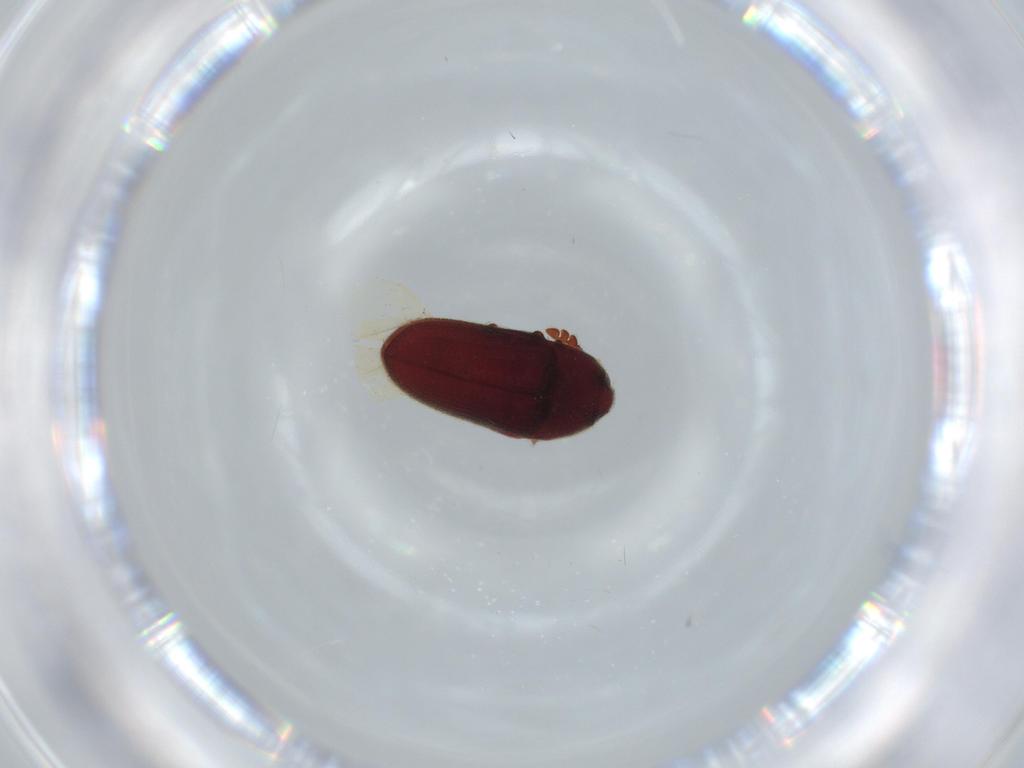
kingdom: Animalia
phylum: Arthropoda
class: Insecta
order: Coleoptera
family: Throscidae
